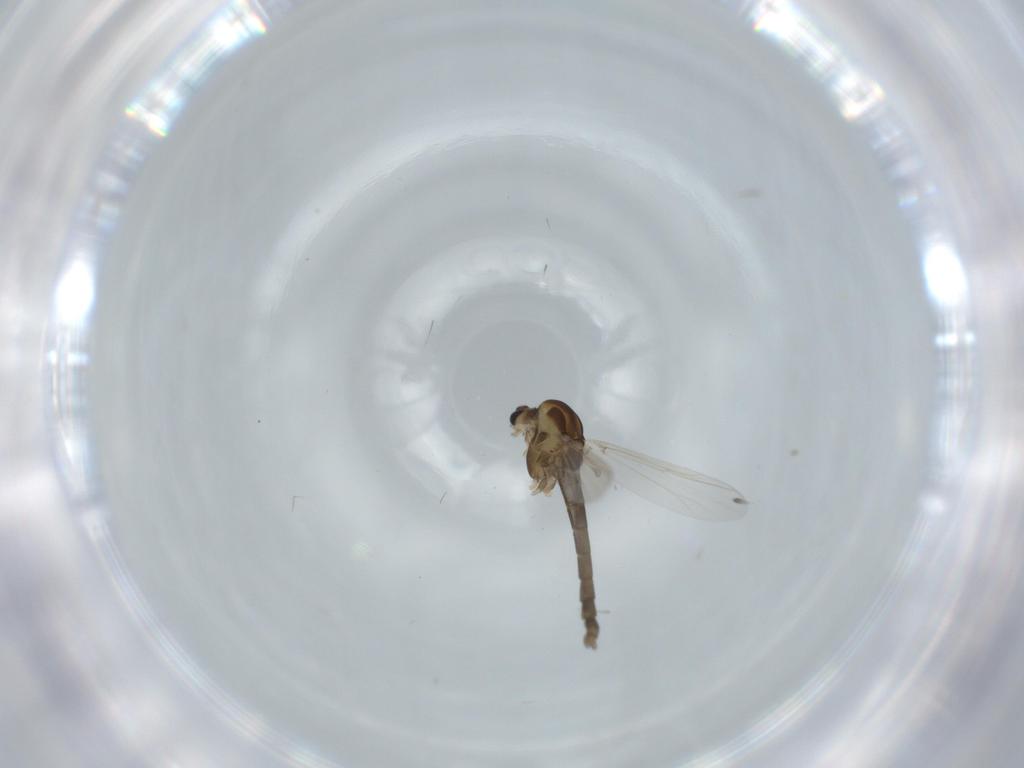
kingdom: Animalia
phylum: Arthropoda
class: Insecta
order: Diptera
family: Chironomidae
